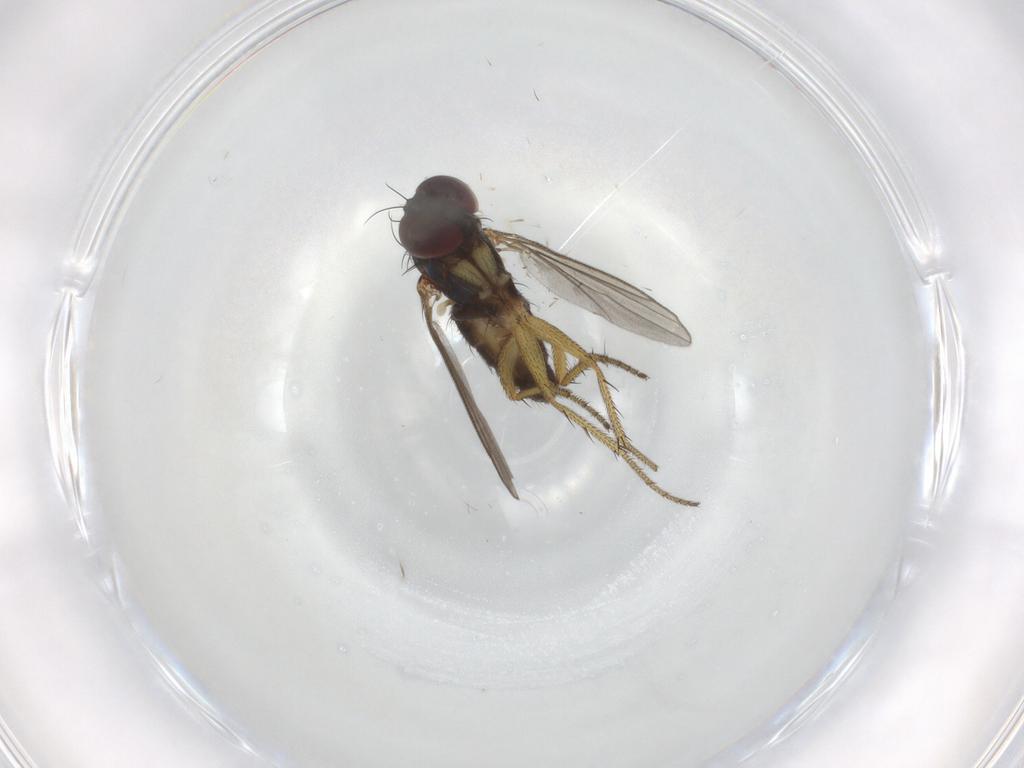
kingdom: Animalia
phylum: Arthropoda
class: Insecta
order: Diptera
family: Dolichopodidae
